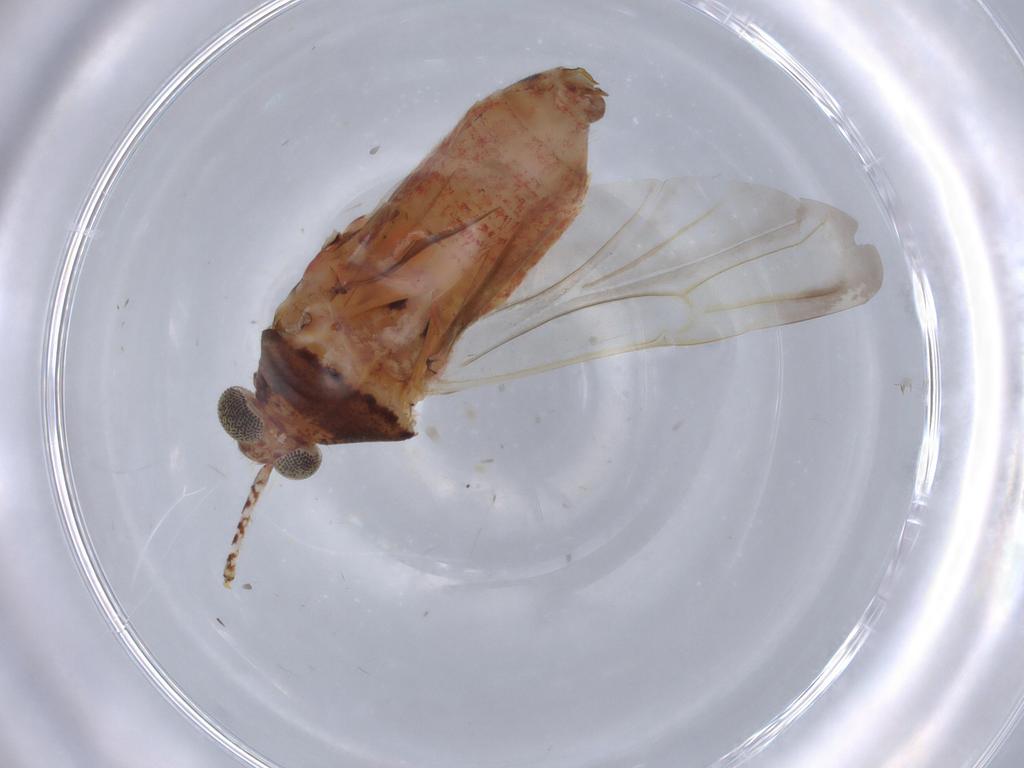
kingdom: Animalia
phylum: Arthropoda
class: Insecta
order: Hemiptera
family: Miridae
